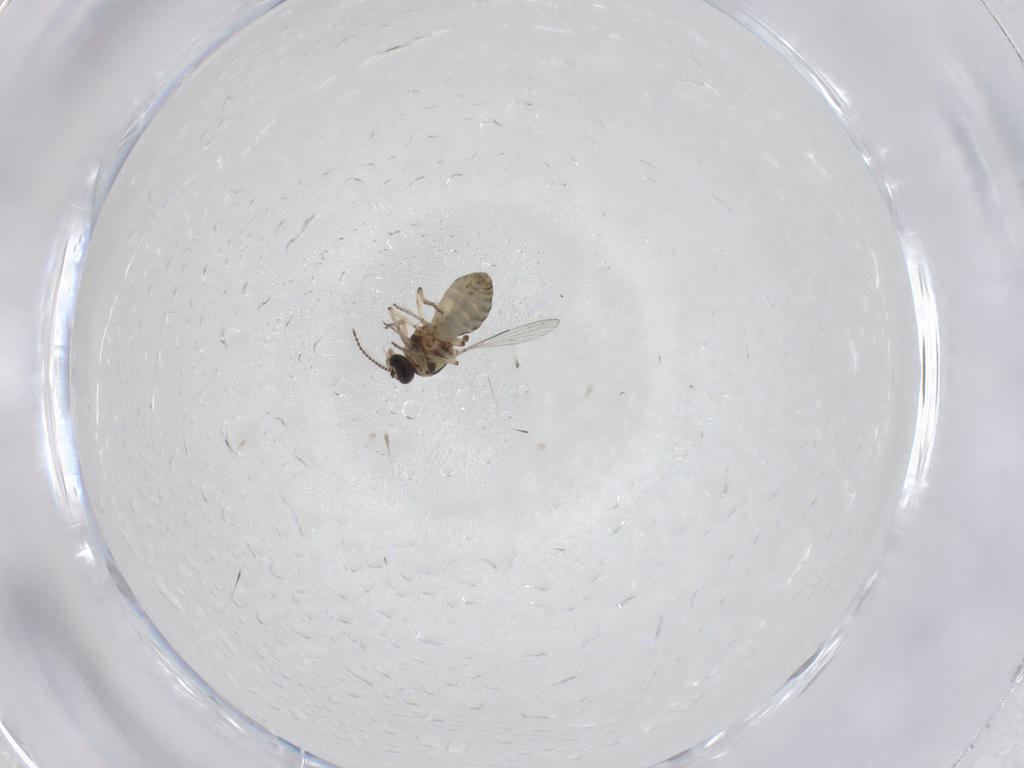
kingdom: Animalia
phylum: Arthropoda
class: Insecta
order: Diptera
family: Ceratopogonidae
